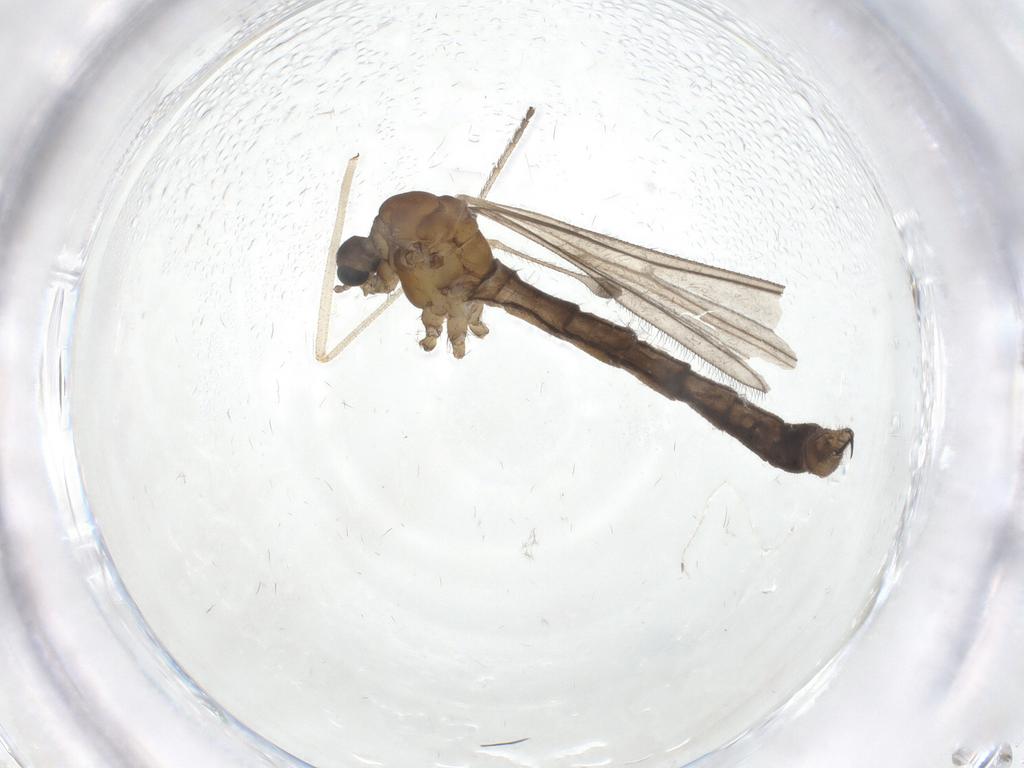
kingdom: Animalia
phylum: Arthropoda
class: Insecta
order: Diptera
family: Limoniidae
